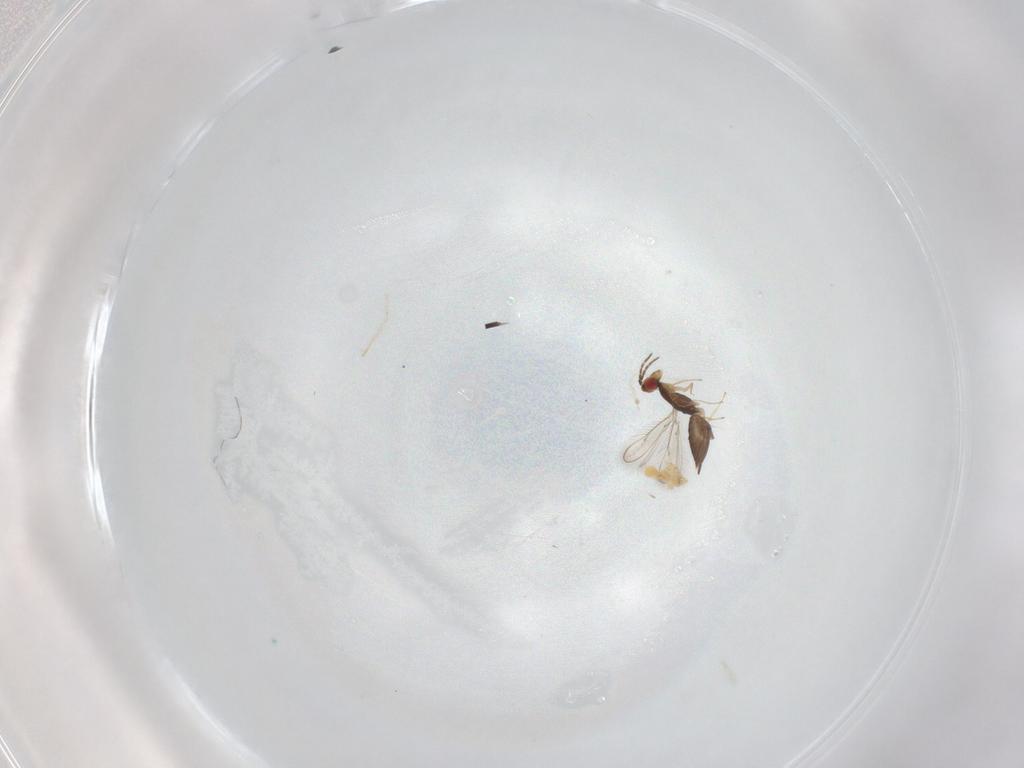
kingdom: Animalia
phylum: Arthropoda
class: Insecta
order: Hymenoptera
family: Eulophidae
